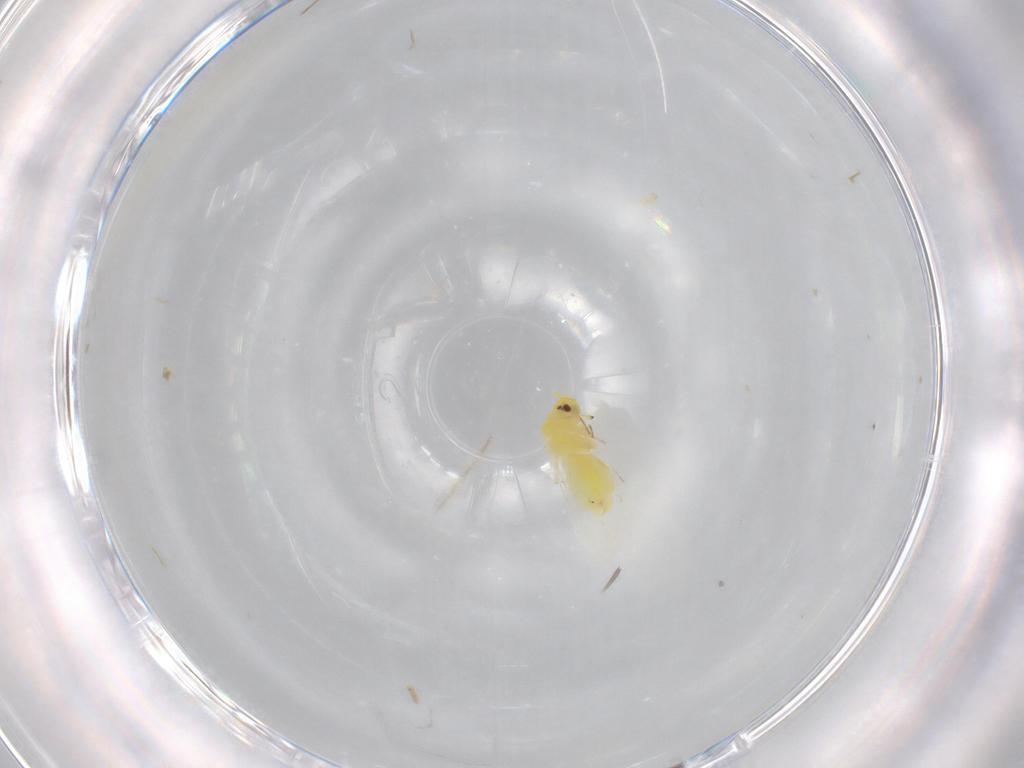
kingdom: Animalia
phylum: Arthropoda
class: Insecta
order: Hemiptera
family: Aleyrodidae
